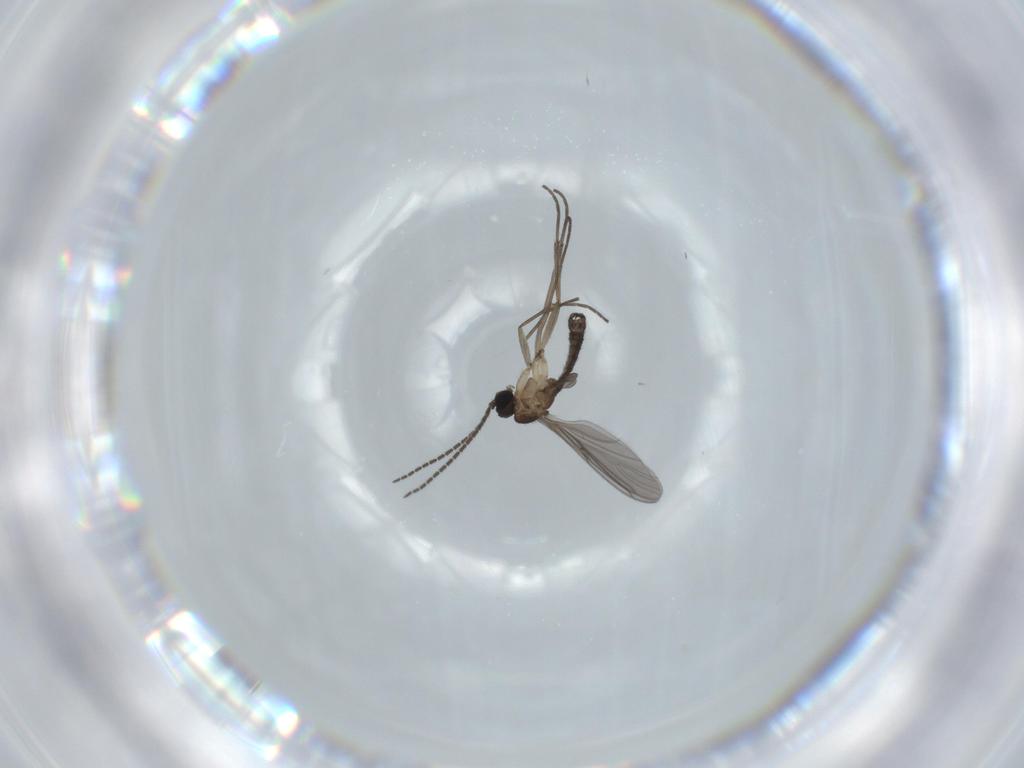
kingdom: Animalia
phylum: Arthropoda
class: Insecta
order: Diptera
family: Sciaridae
